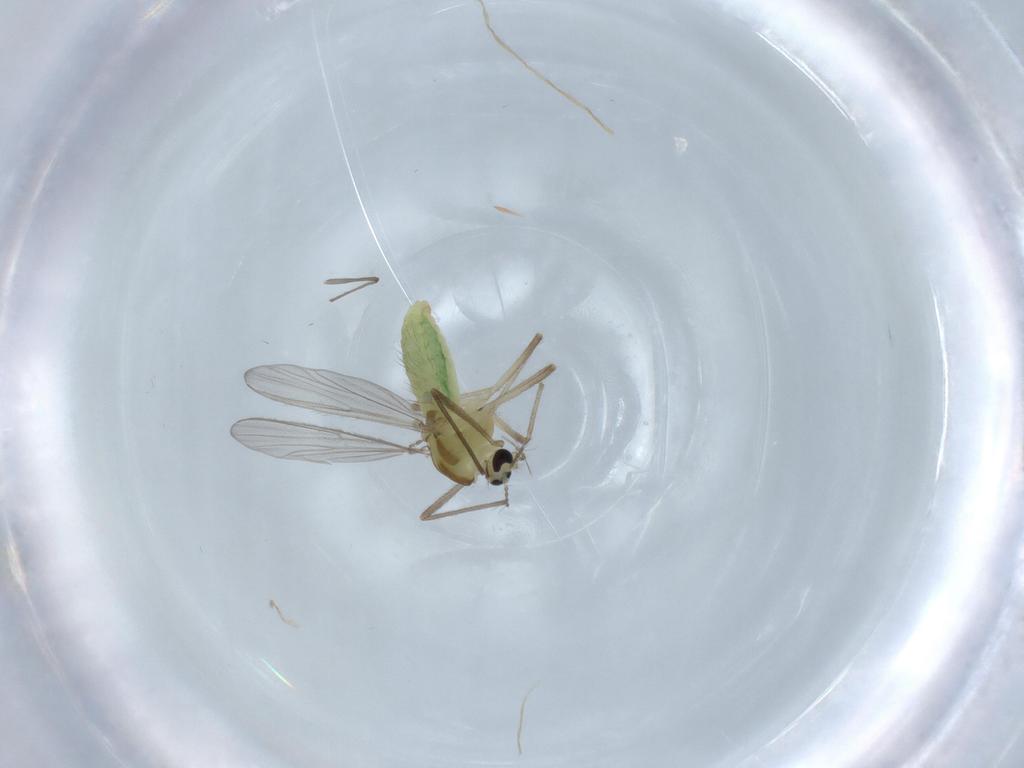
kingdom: Animalia
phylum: Arthropoda
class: Insecta
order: Diptera
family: Chironomidae
